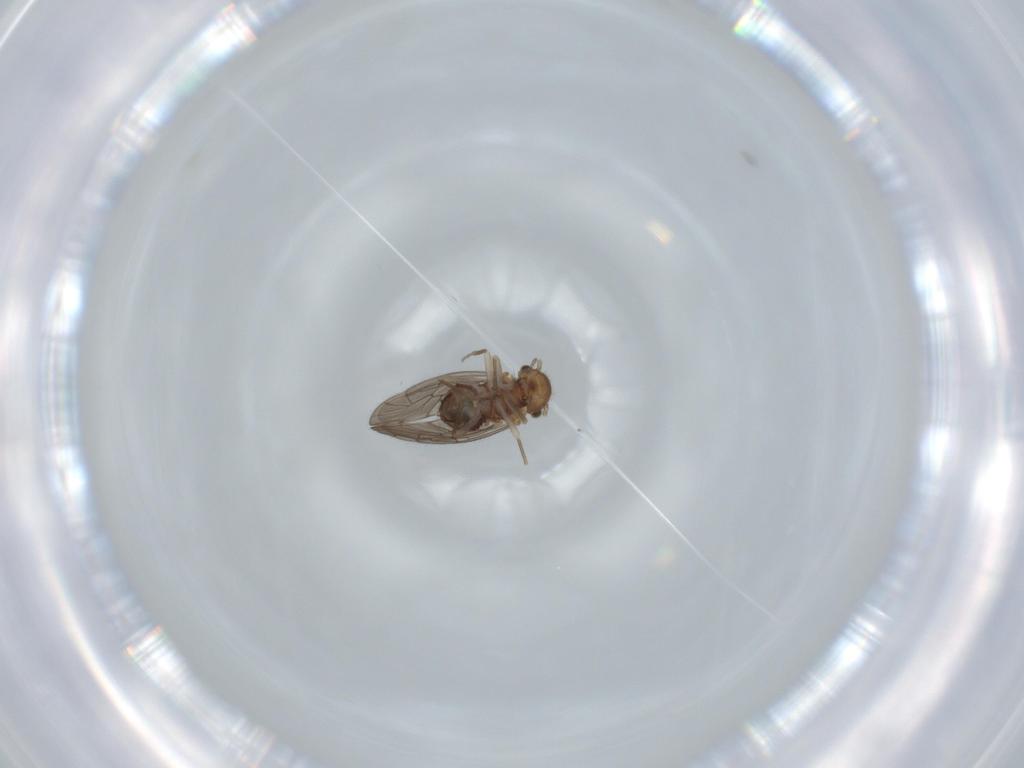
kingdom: Animalia
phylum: Arthropoda
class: Insecta
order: Psocodea
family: Ectopsocidae
